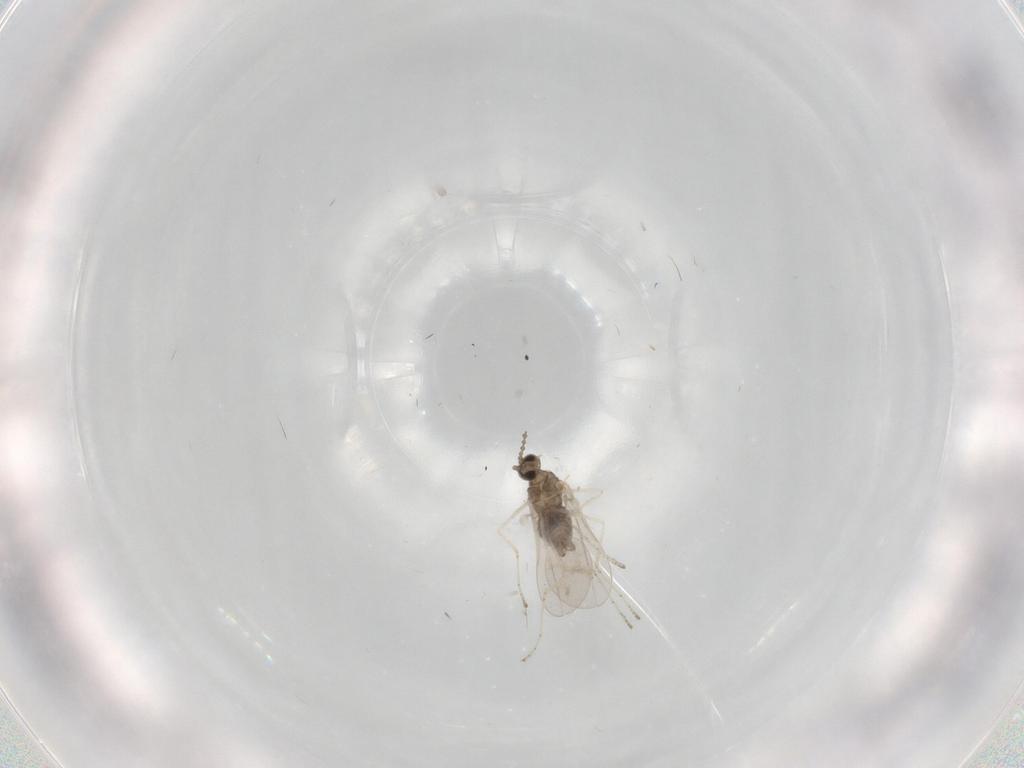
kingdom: Animalia
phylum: Arthropoda
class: Insecta
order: Diptera
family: Cecidomyiidae
